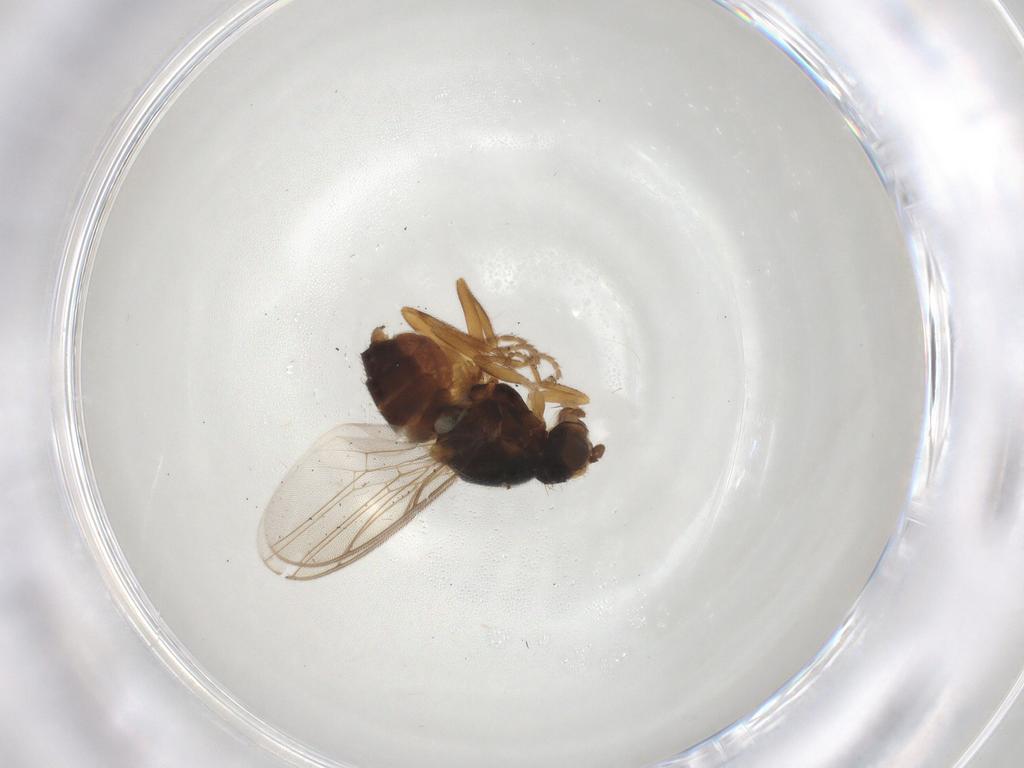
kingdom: Animalia
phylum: Arthropoda
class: Insecta
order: Diptera
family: Chloropidae
